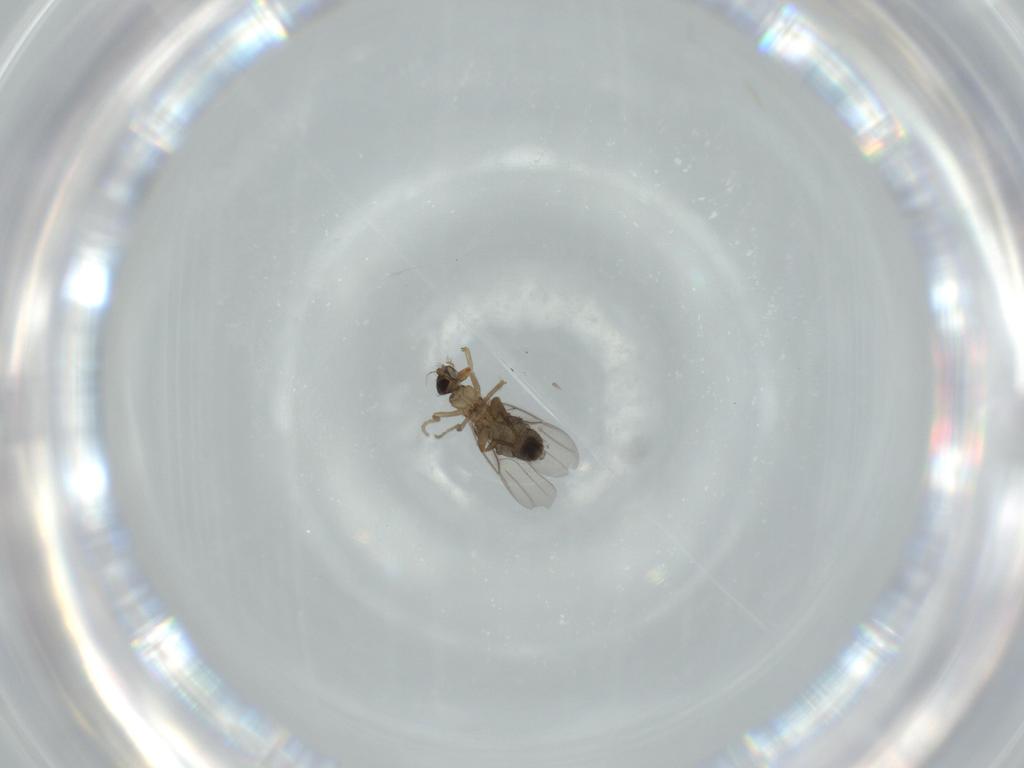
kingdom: Animalia
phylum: Arthropoda
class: Insecta
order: Diptera
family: Phoridae
